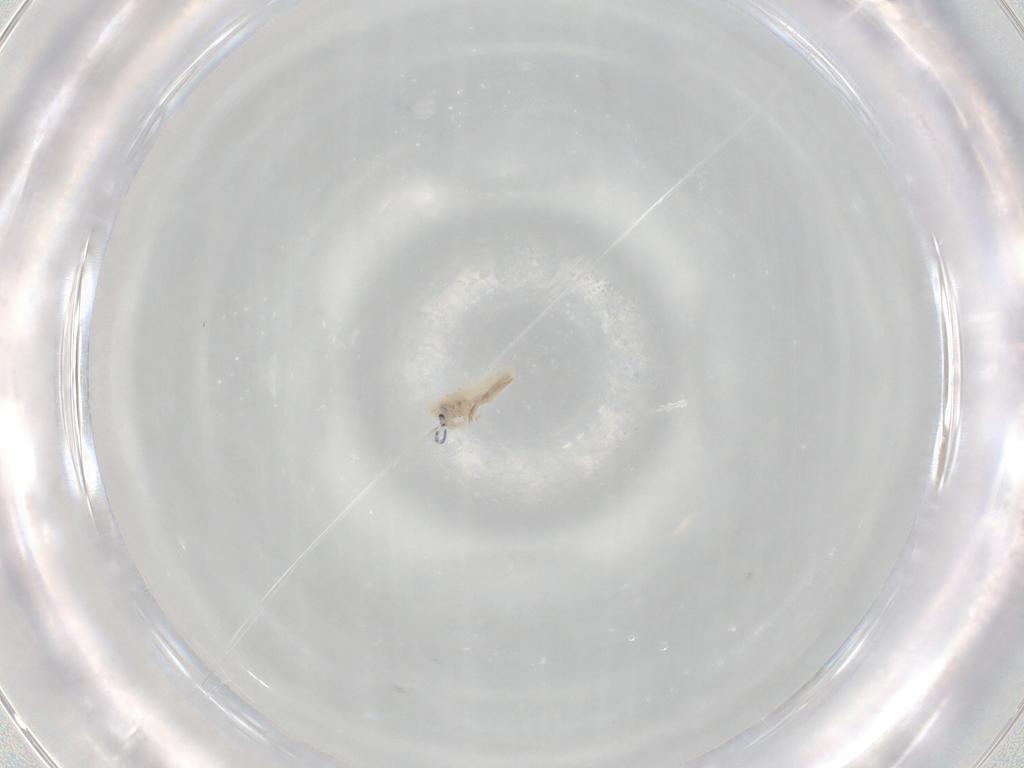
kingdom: Animalia
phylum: Arthropoda
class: Collembola
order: Entomobryomorpha
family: Entomobryidae
